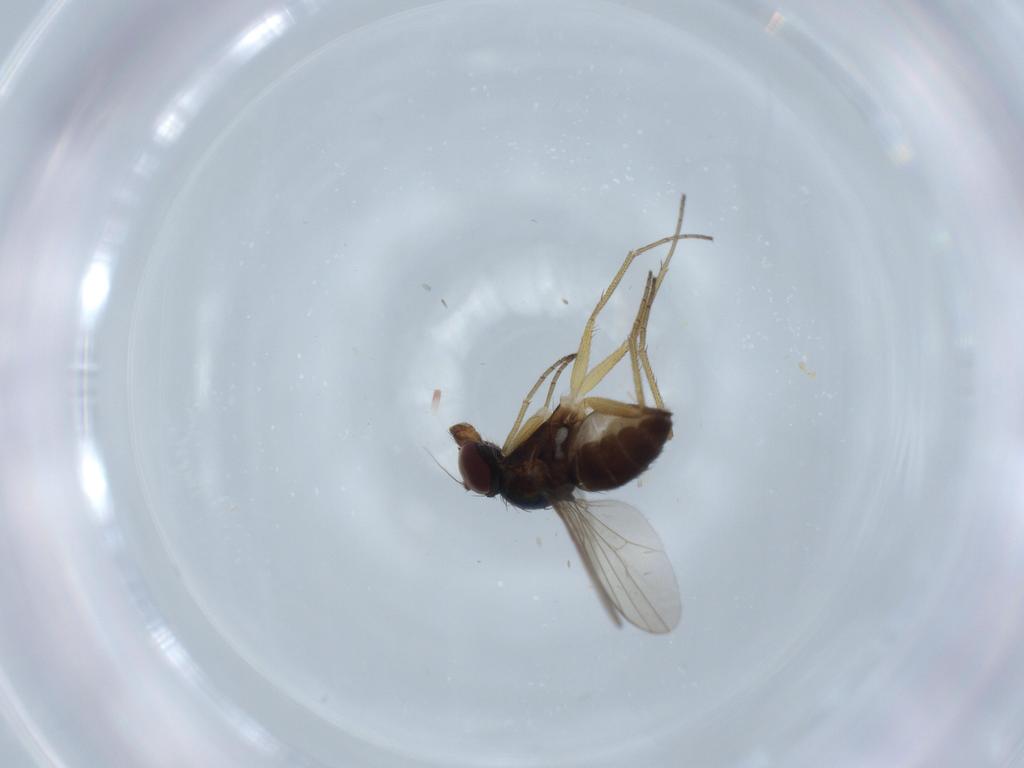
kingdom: Animalia
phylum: Arthropoda
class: Insecta
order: Diptera
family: Dolichopodidae
